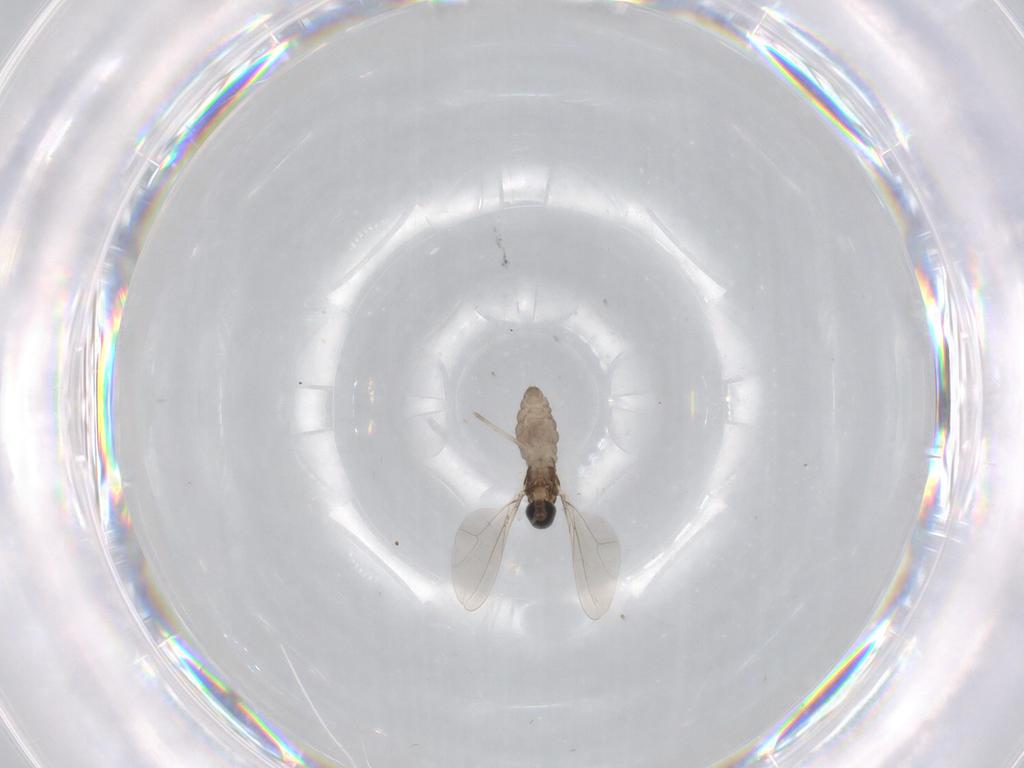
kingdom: Animalia
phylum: Arthropoda
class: Insecta
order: Diptera
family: Cecidomyiidae
